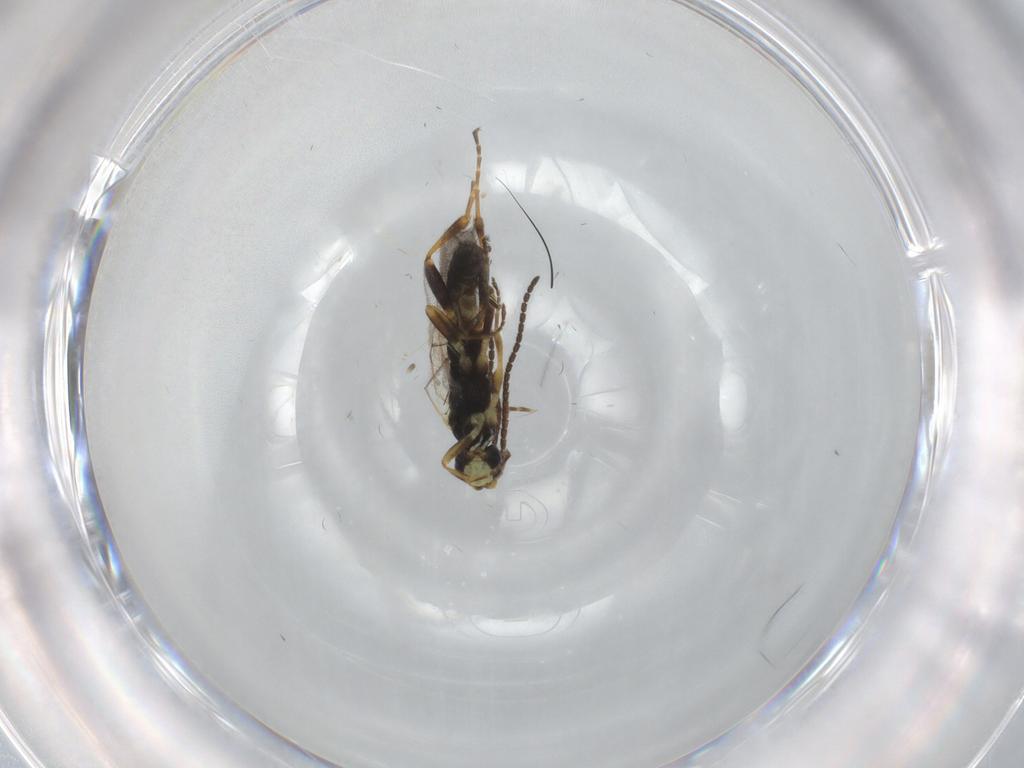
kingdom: Animalia
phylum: Arthropoda
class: Insecta
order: Hymenoptera
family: Ichneumonidae
